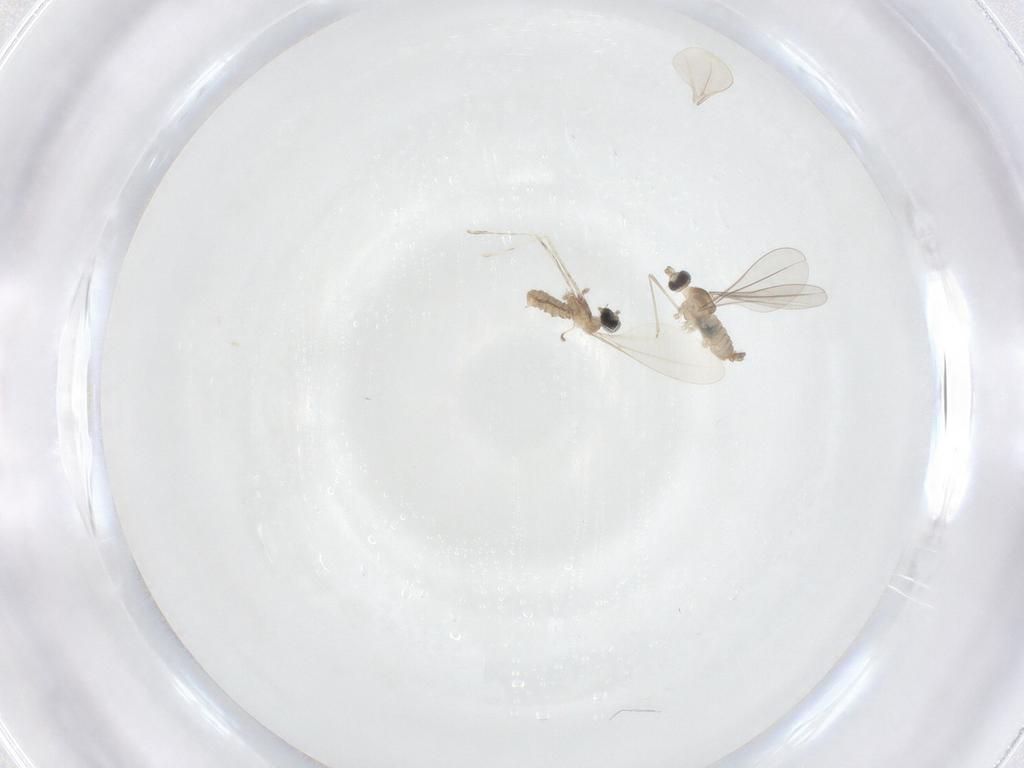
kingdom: Animalia
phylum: Arthropoda
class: Insecta
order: Diptera
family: Cecidomyiidae
